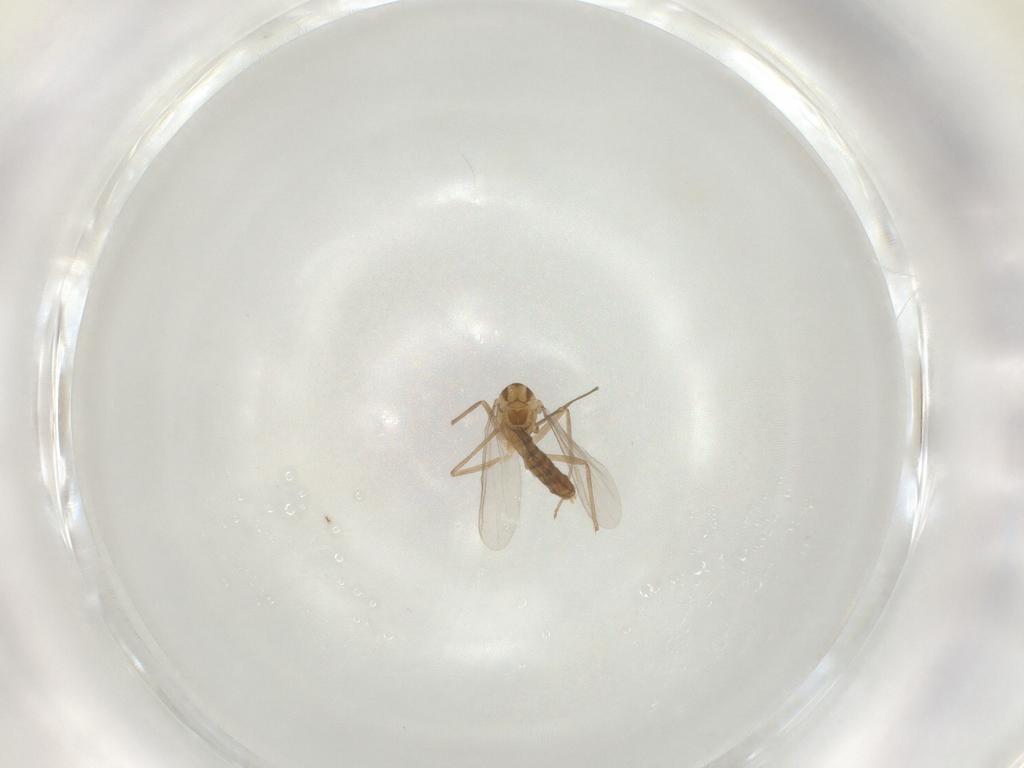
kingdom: Animalia
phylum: Arthropoda
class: Insecta
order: Diptera
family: Chironomidae
